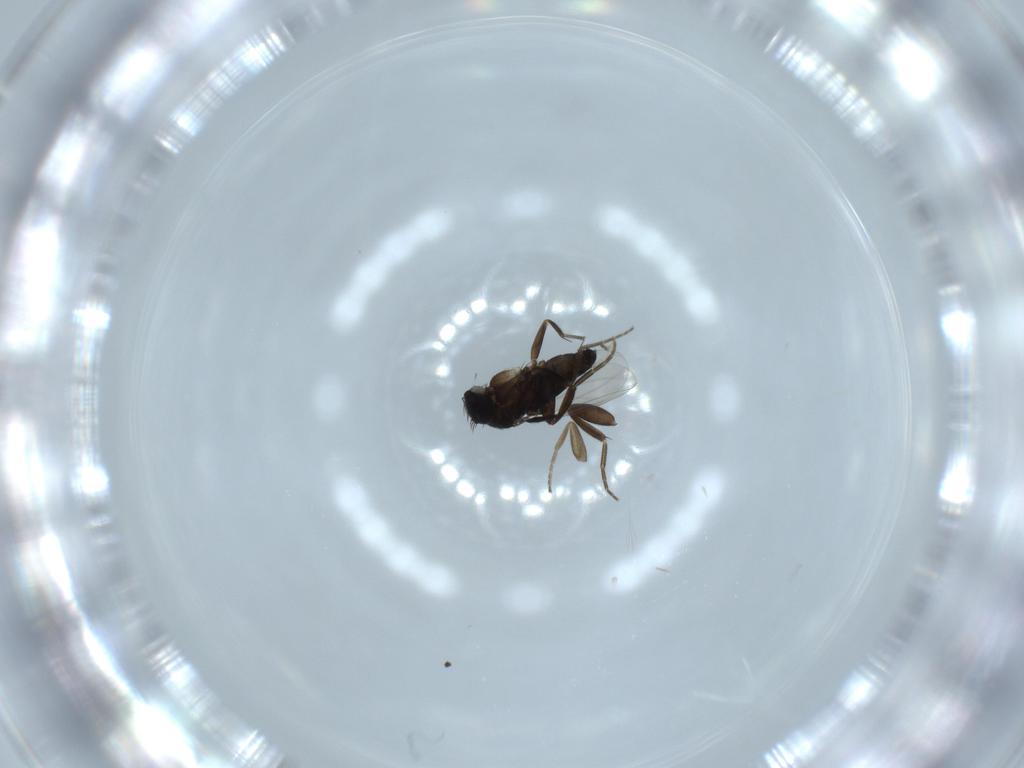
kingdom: Animalia
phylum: Arthropoda
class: Insecta
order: Diptera
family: Phoridae
